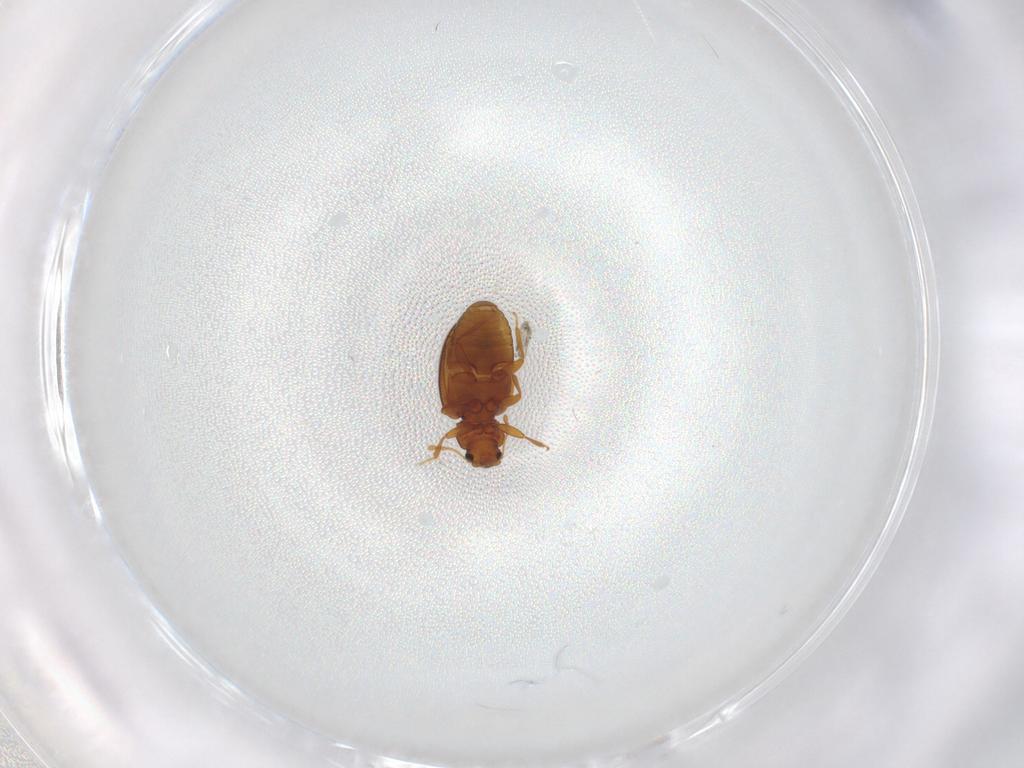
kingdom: Animalia
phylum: Arthropoda
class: Insecta
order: Coleoptera
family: Latridiidae
